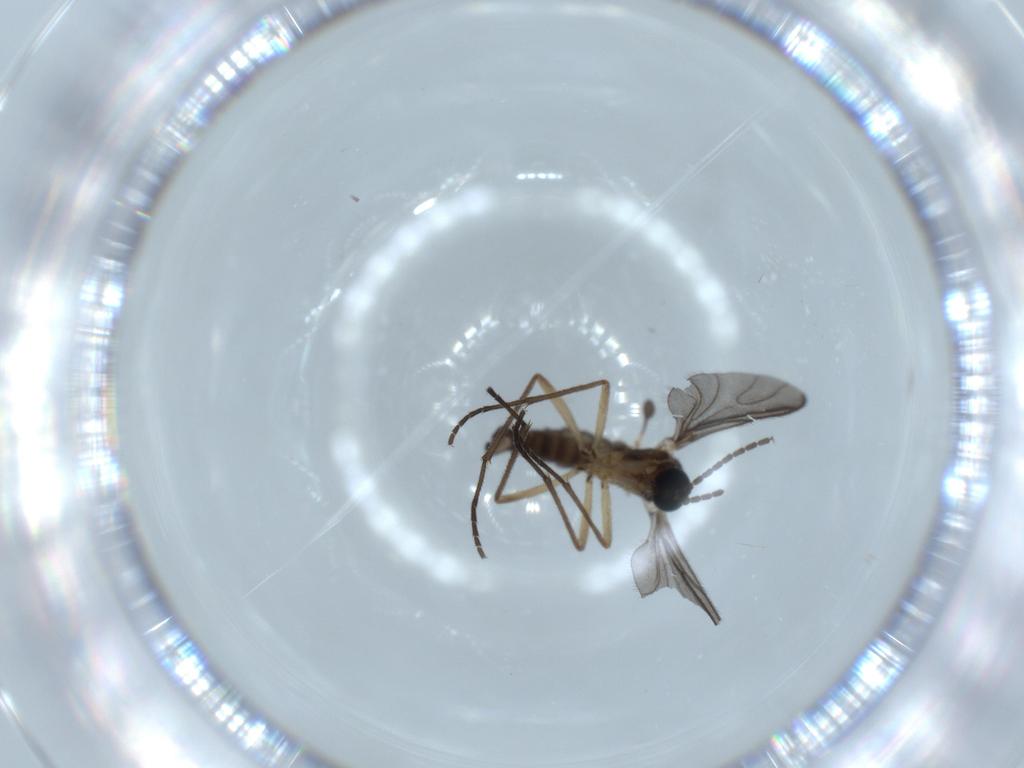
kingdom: Animalia
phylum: Arthropoda
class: Insecta
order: Diptera
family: Sciaridae
